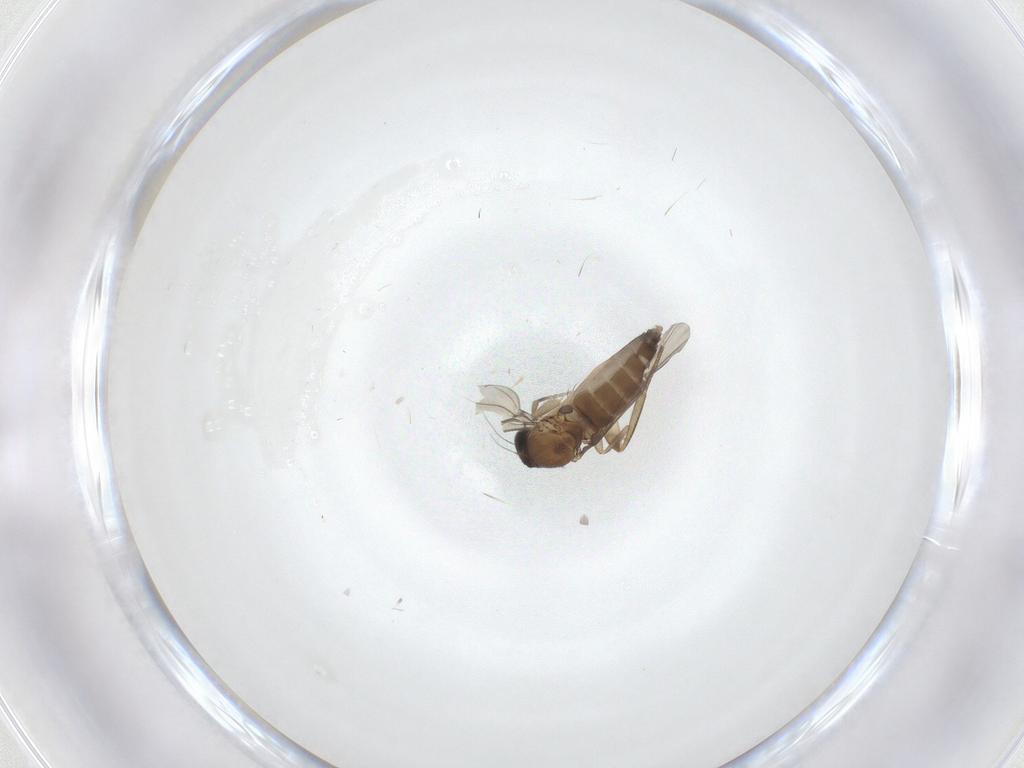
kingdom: Animalia
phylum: Arthropoda
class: Insecta
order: Diptera
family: Phoridae
